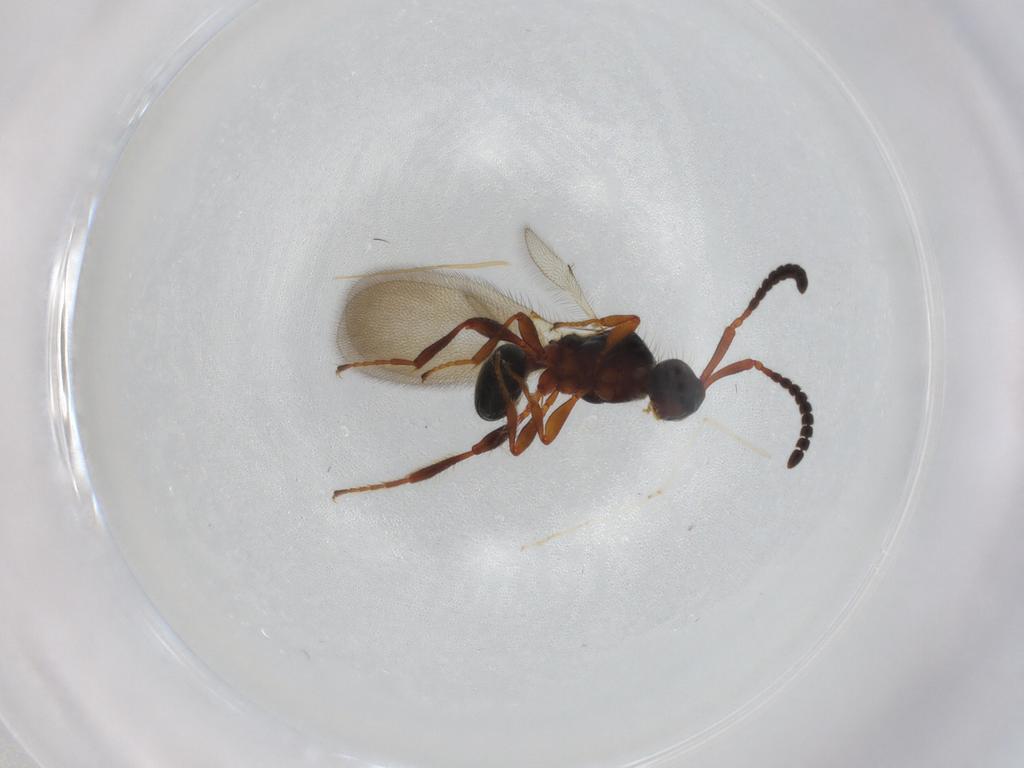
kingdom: Animalia
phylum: Arthropoda
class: Insecta
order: Hymenoptera
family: Diapriidae
